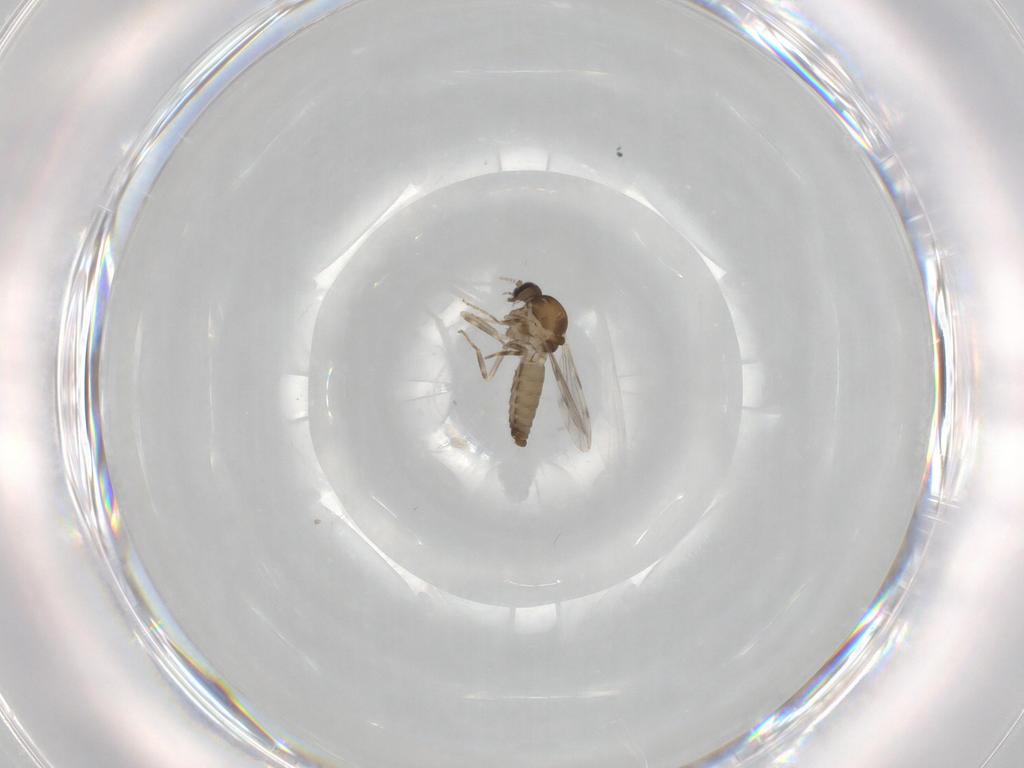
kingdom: Animalia
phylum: Arthropoda
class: Insecta
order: Diptera
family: Ceratopogonidae
